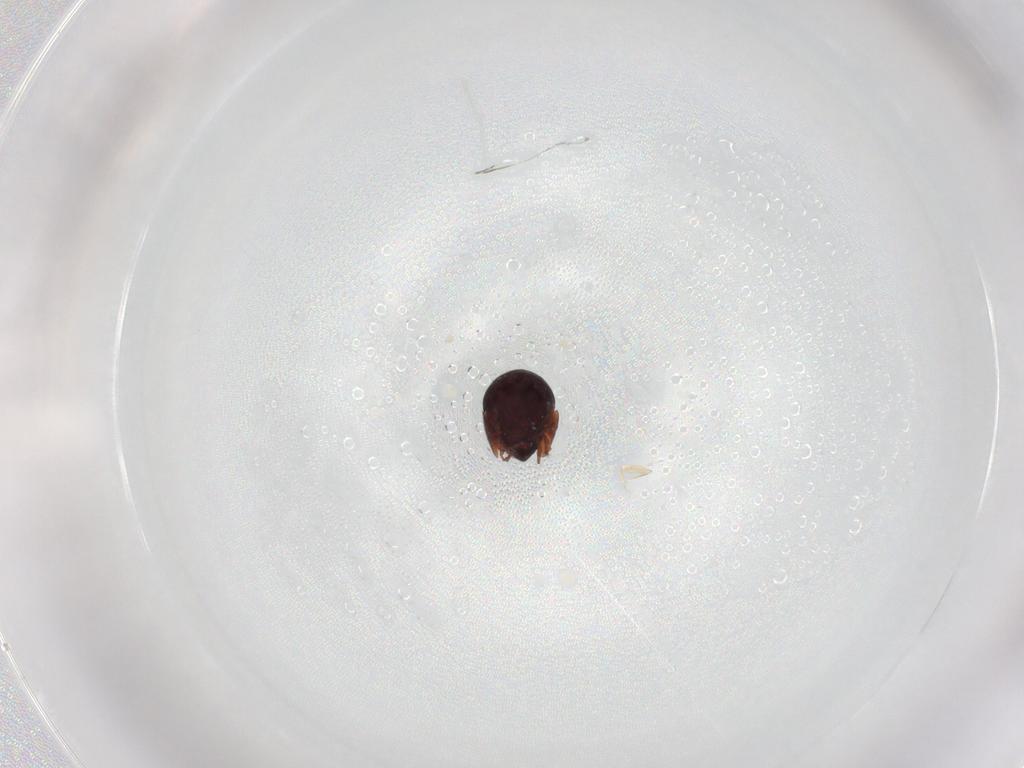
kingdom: Animalia
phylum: Arthropoda
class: Arachnida
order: Sarcoptiformes
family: Galumnidae
